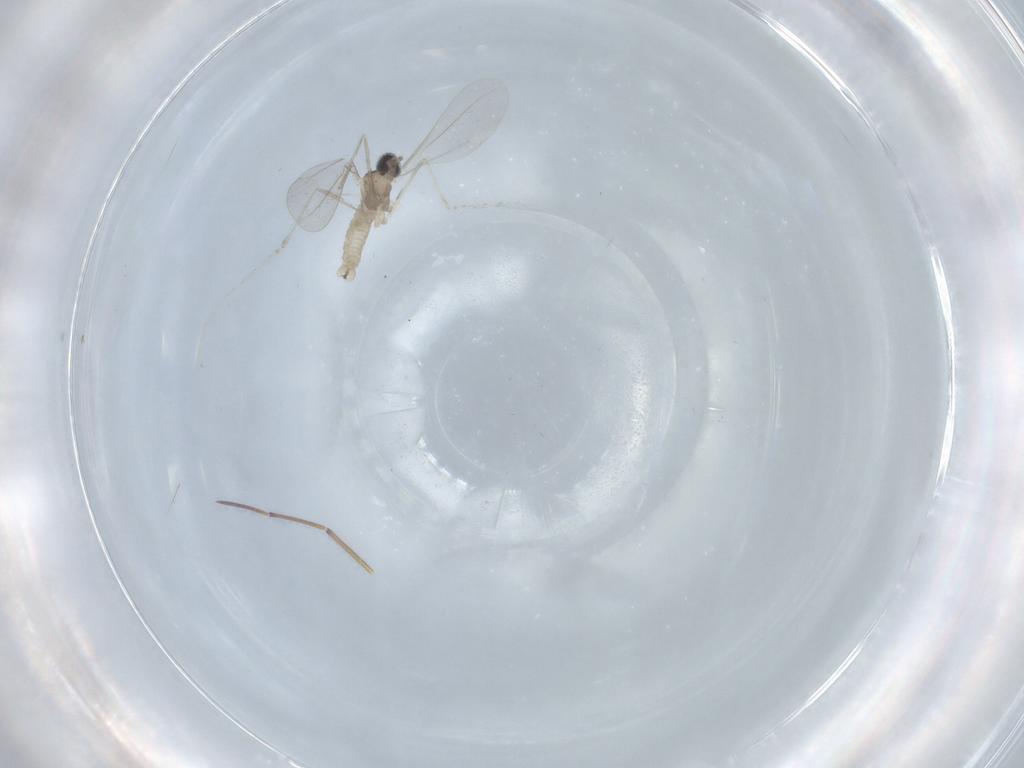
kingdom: Animalia
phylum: Arthropoda
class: Insecta
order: Diptera
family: Cecidomyiidae
